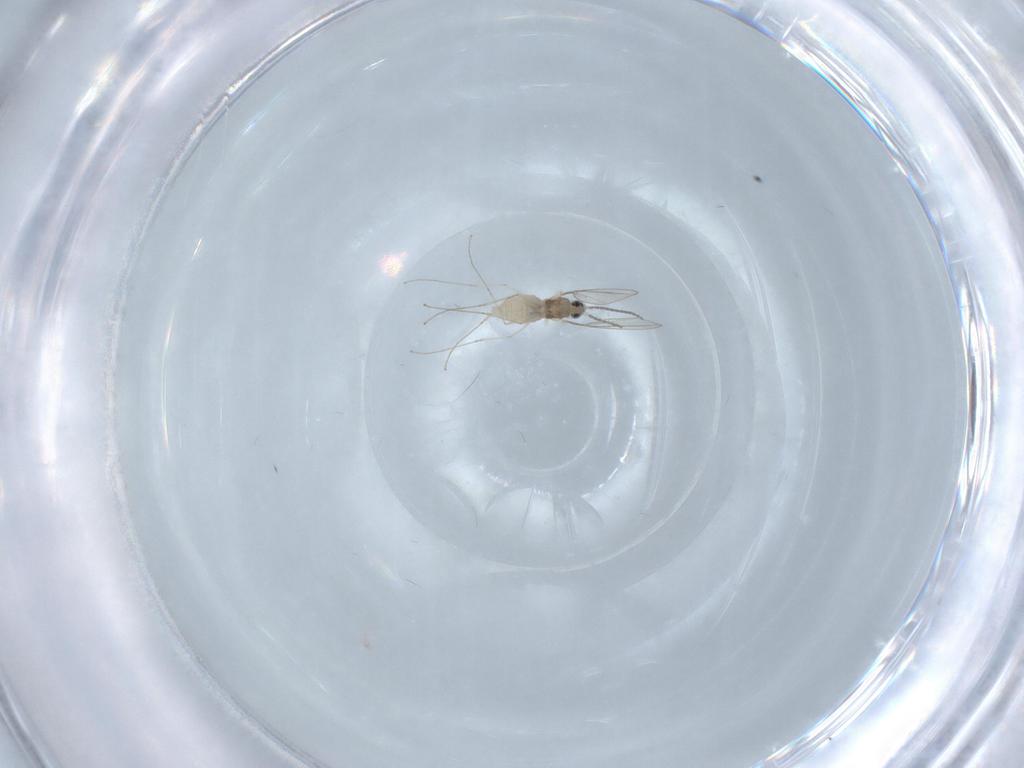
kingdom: Animalia
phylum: Arthropoda
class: Insecta
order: Diptera
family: Cecidomyiidae
